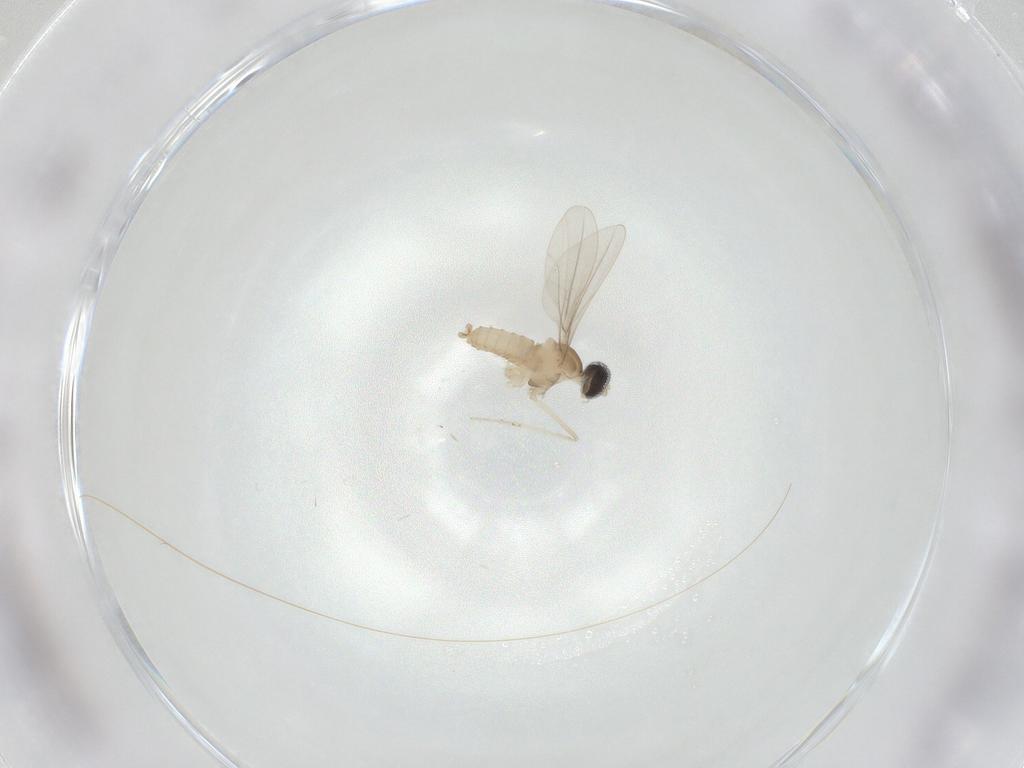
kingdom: Animalia
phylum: Arthropoda
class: Insecta
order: Diptera
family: Cecidomyiidae
